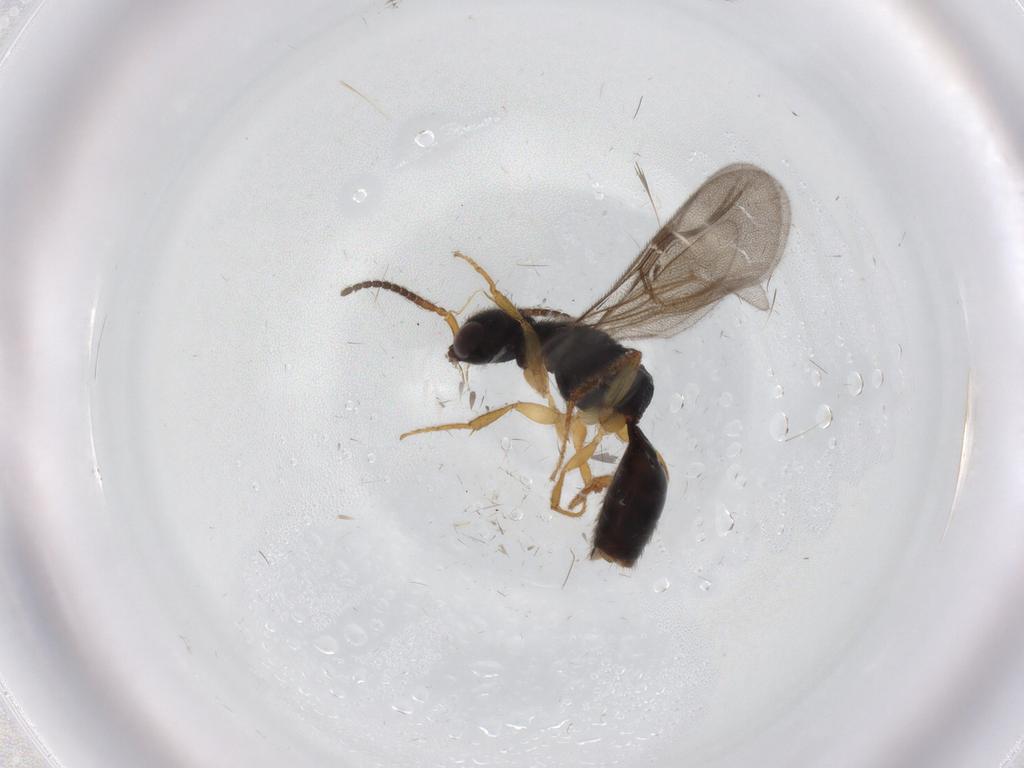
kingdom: Animalia
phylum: Arthropoda
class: Insecta
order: Hymenoptera
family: Bethylidae
